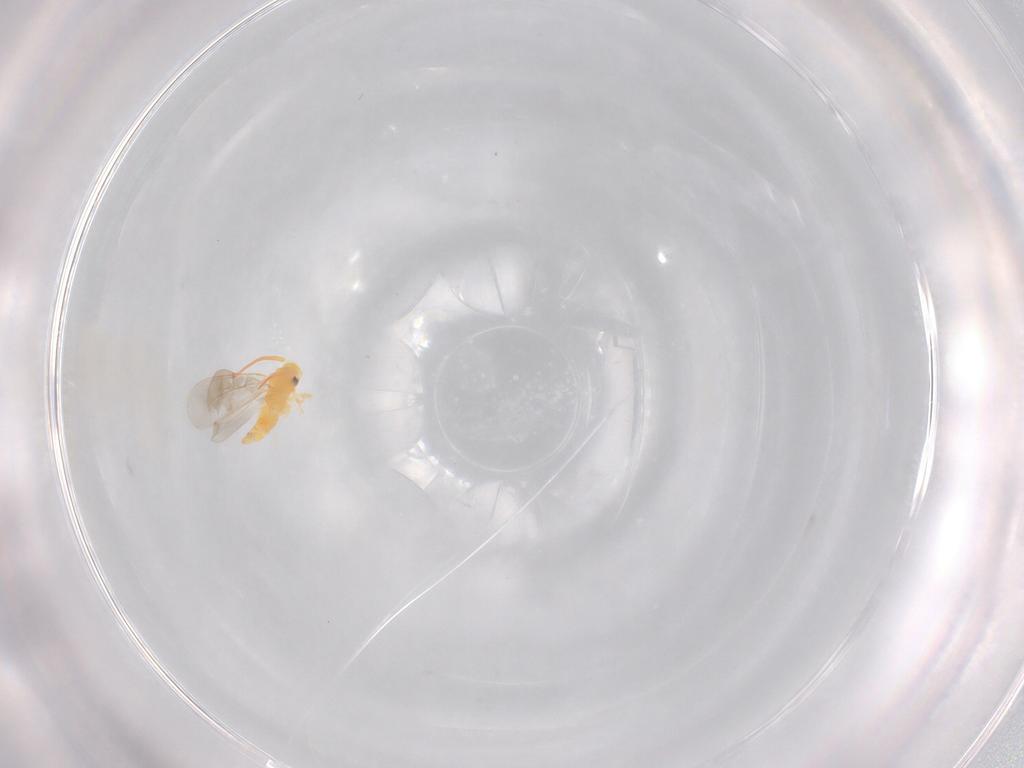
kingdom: Animalia
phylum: Arthropoda
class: Insecta
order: Hemiptera
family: Aleyrodidae
